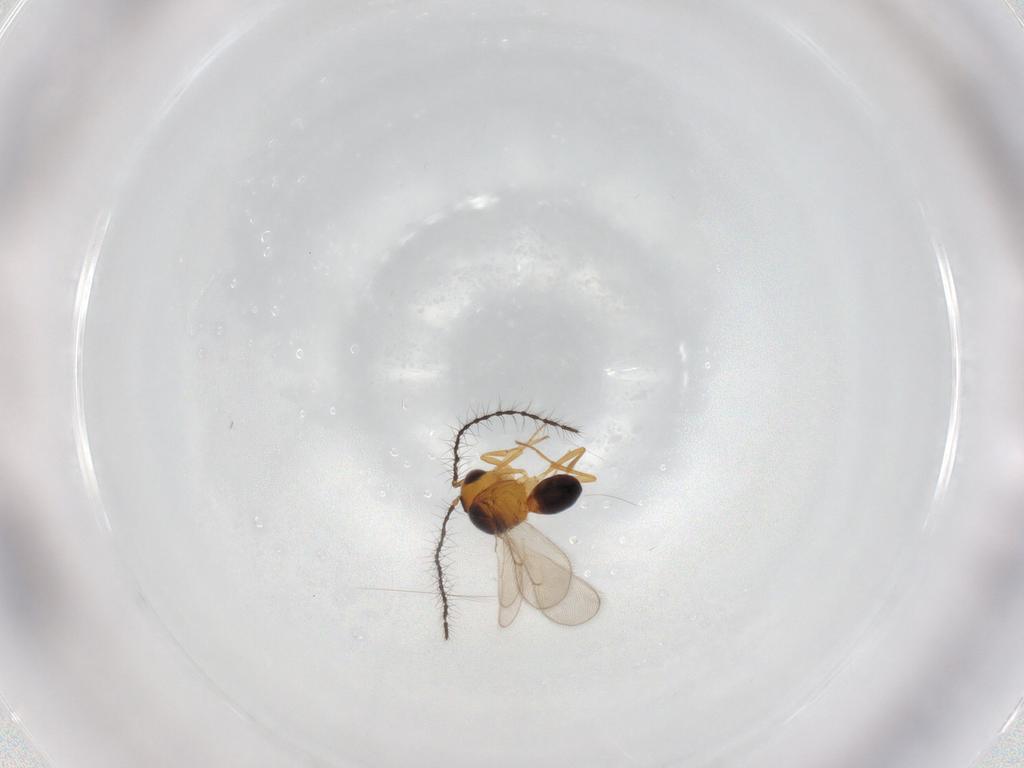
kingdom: Animalia
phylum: Arthropoda
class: Insecta
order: Hymenoptera
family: Scelionidae
